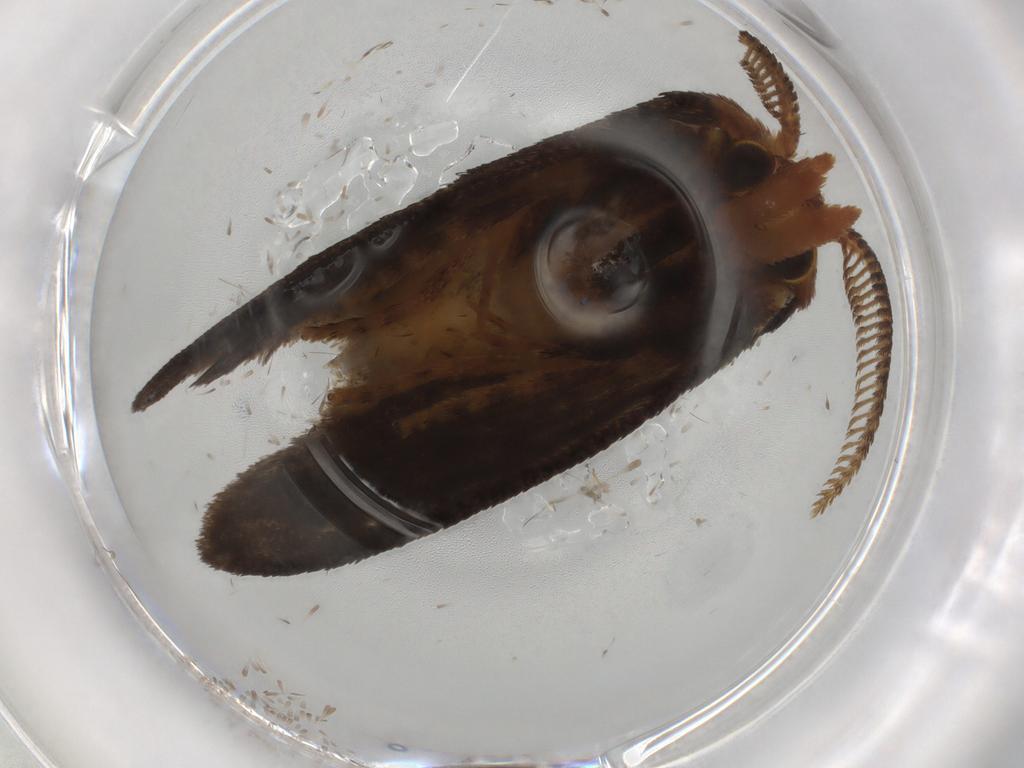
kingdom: Animalia
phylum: Arthropoda
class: Insecta
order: Lepidoptera
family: Limacodidae
